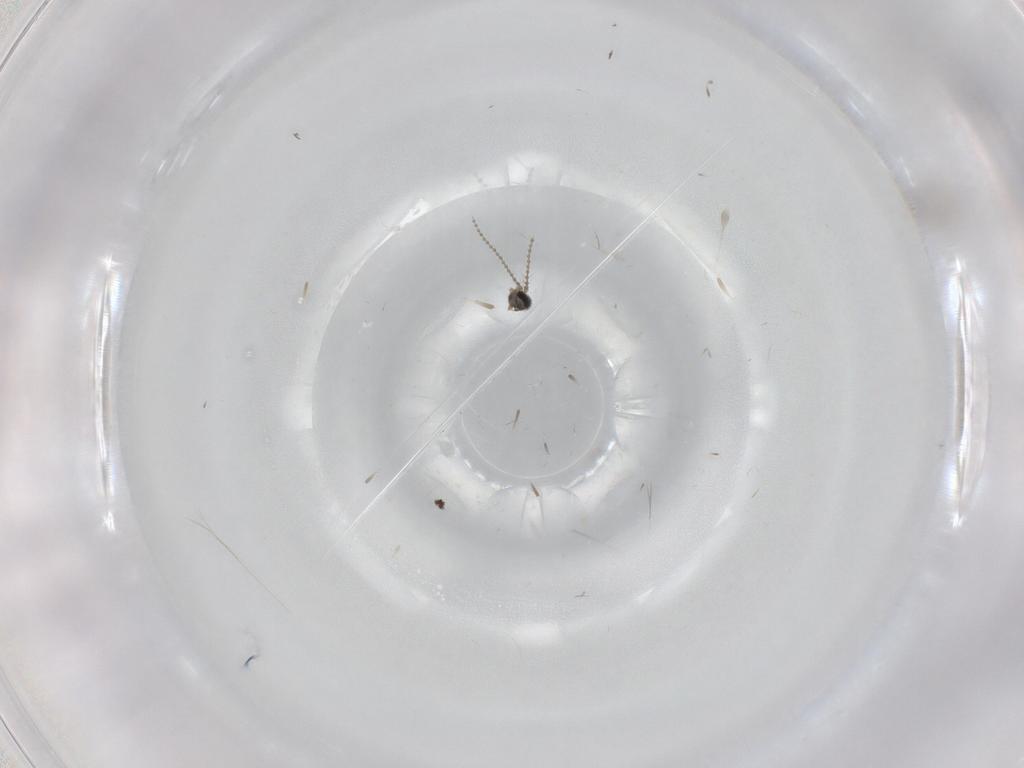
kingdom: Animalia
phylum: Arthropoda
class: Insecta
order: Diptera
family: Cecidomyiidae
